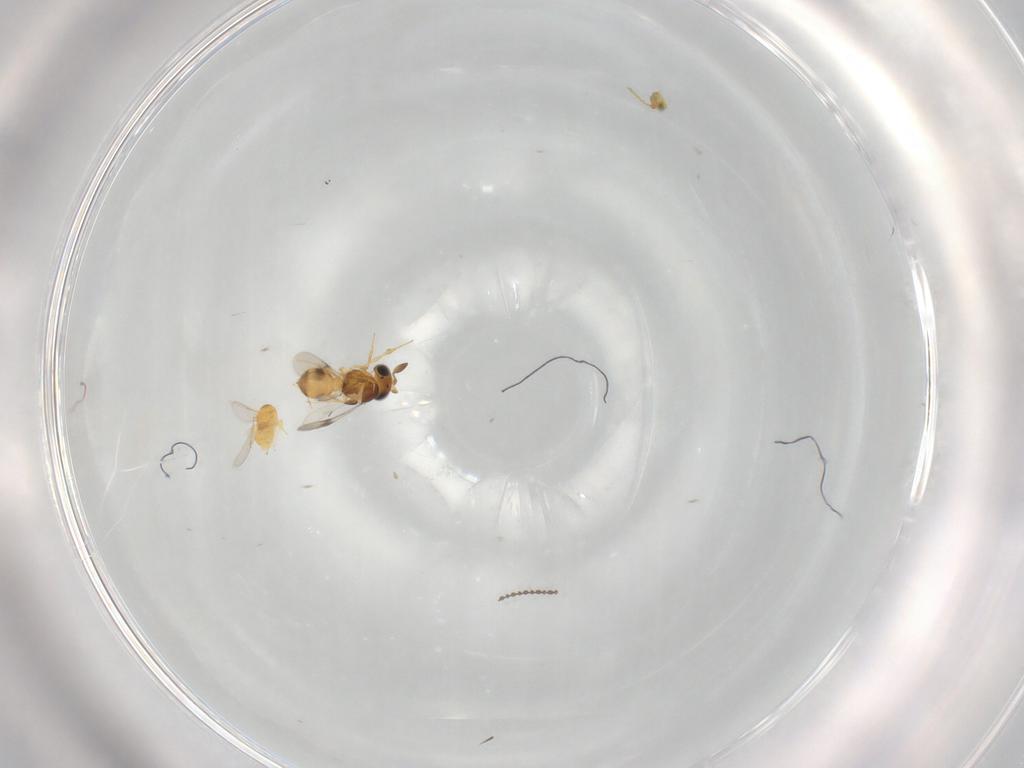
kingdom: Animalia
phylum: Arthropoda
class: Insecta
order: Hymenoptera
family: Scelionidae
